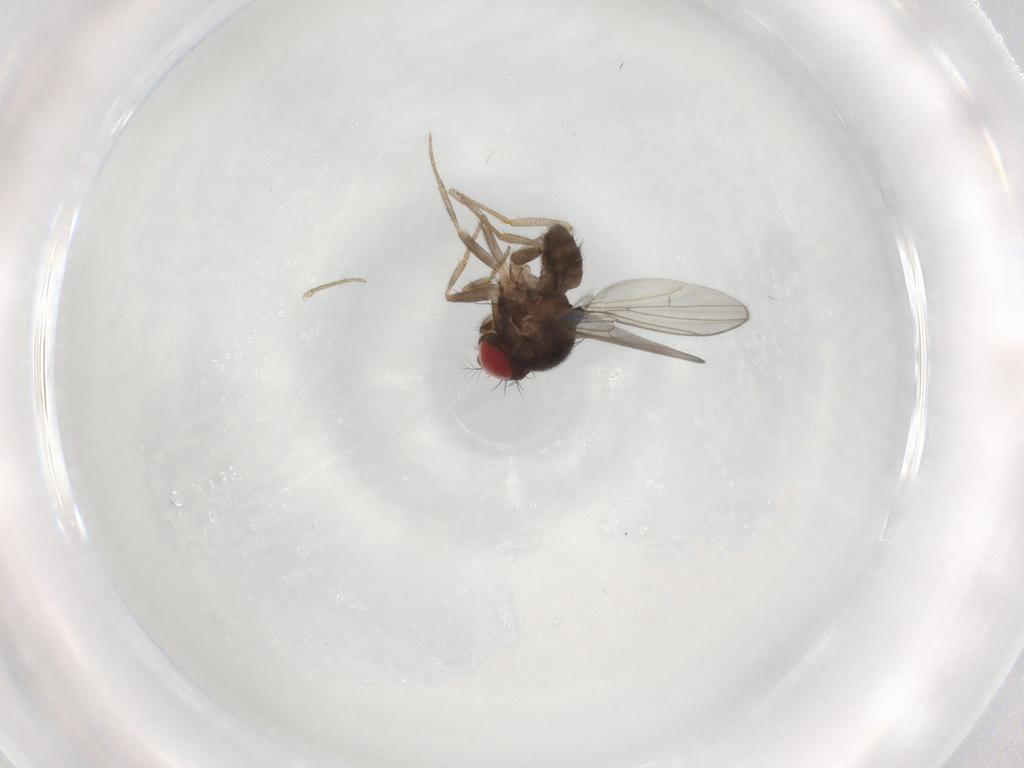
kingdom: Animalia
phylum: Arthropoda
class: Insecta
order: Diptera
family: Drosophilidae
